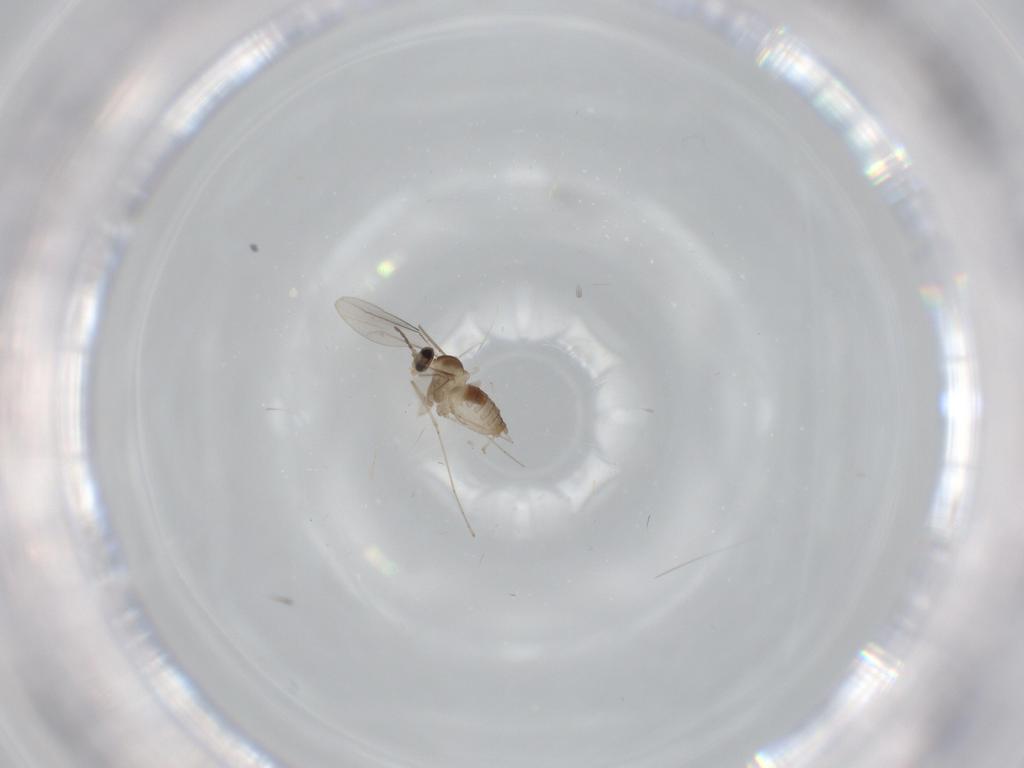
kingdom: Animalia
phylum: Arthropoda
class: Insecta
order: Diptera
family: Cecidomyiidae
